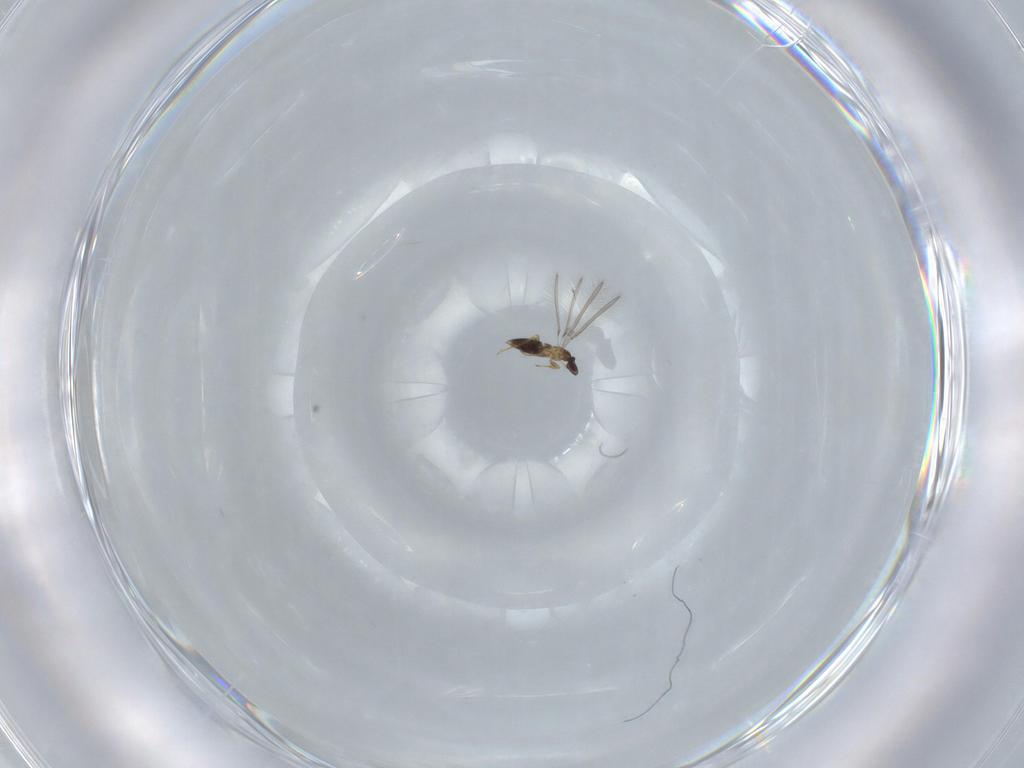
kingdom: Animalia
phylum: Arthropoda
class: Insecta
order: Hymenoptera
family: Mymaridae
